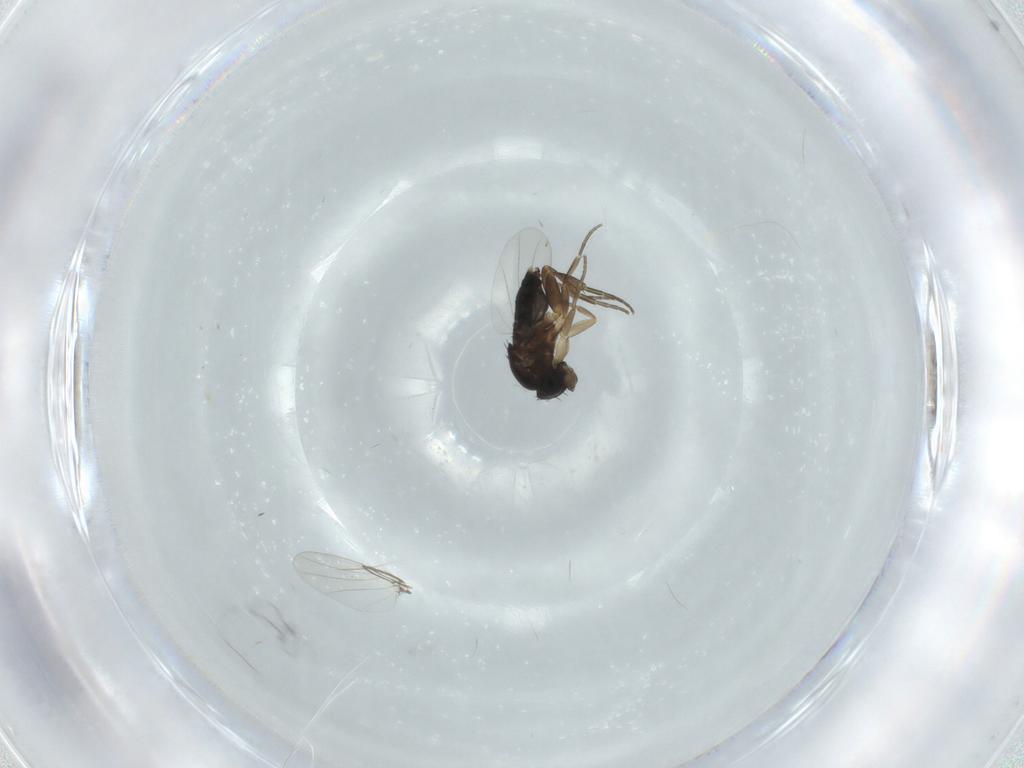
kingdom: Animalia
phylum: Arthropoda
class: Insecta
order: Diptera
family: Phoridae
